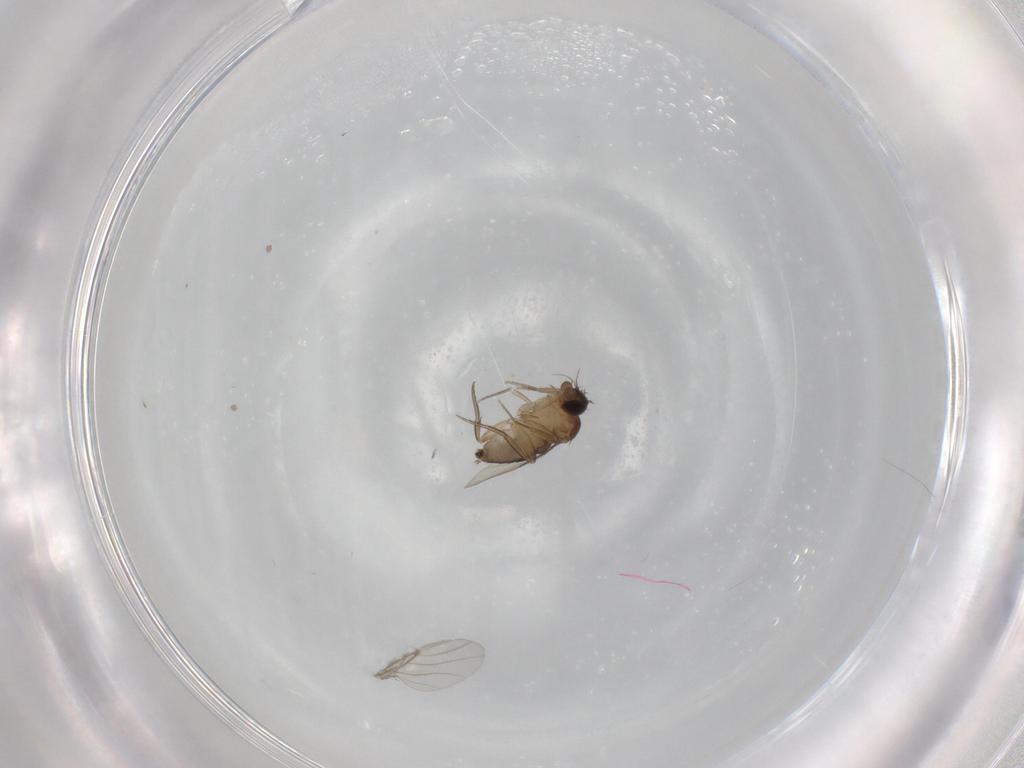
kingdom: Animalia
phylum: Arthropoda
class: Insecta
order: Diptera
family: Phoridae
